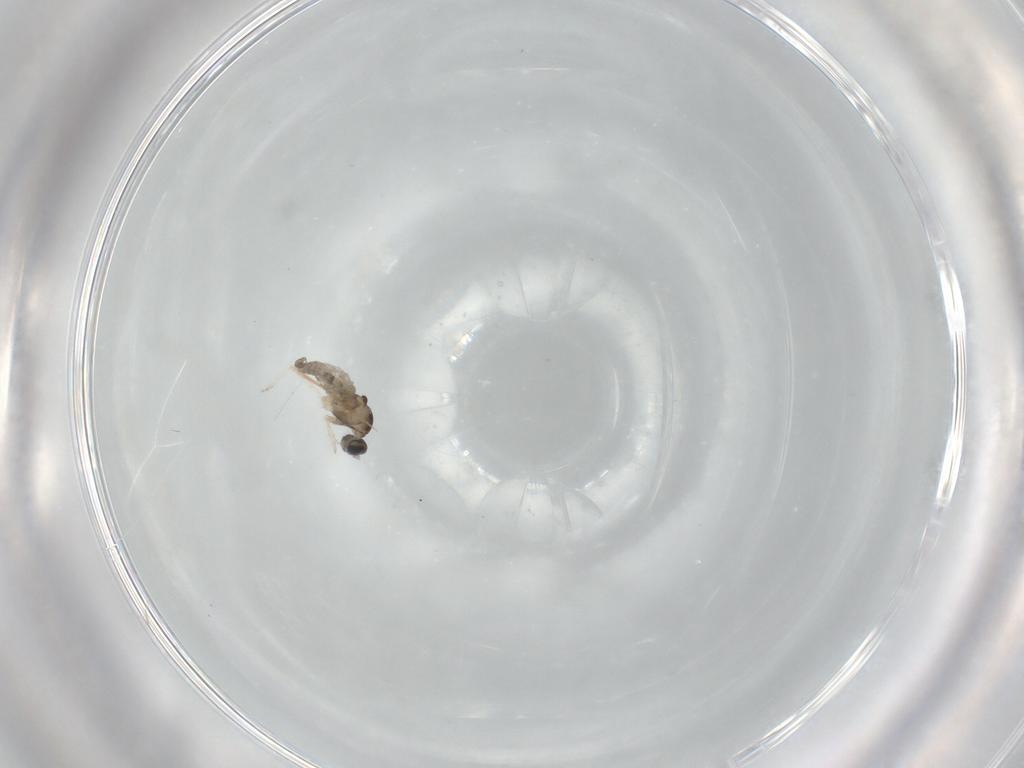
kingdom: Animalia
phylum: Arthropoda
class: Insecta
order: Diptera
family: Cecidomyiidae
